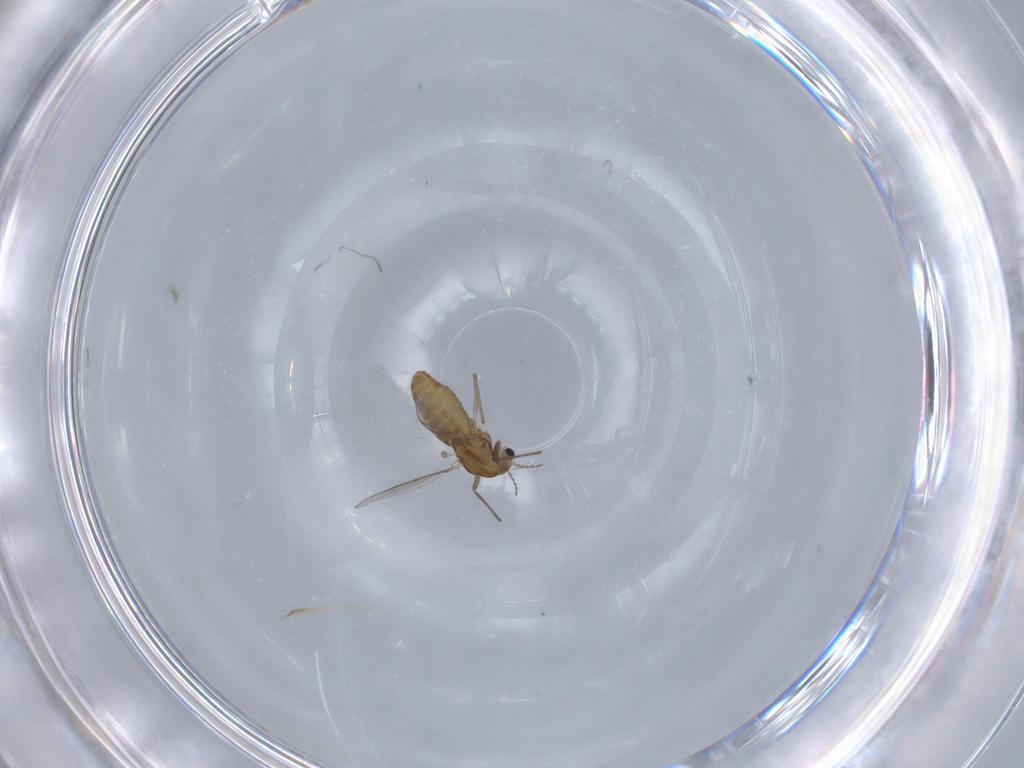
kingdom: Animalia
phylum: Arthropoda
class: Insecta
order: Diptera
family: Chironomidae
